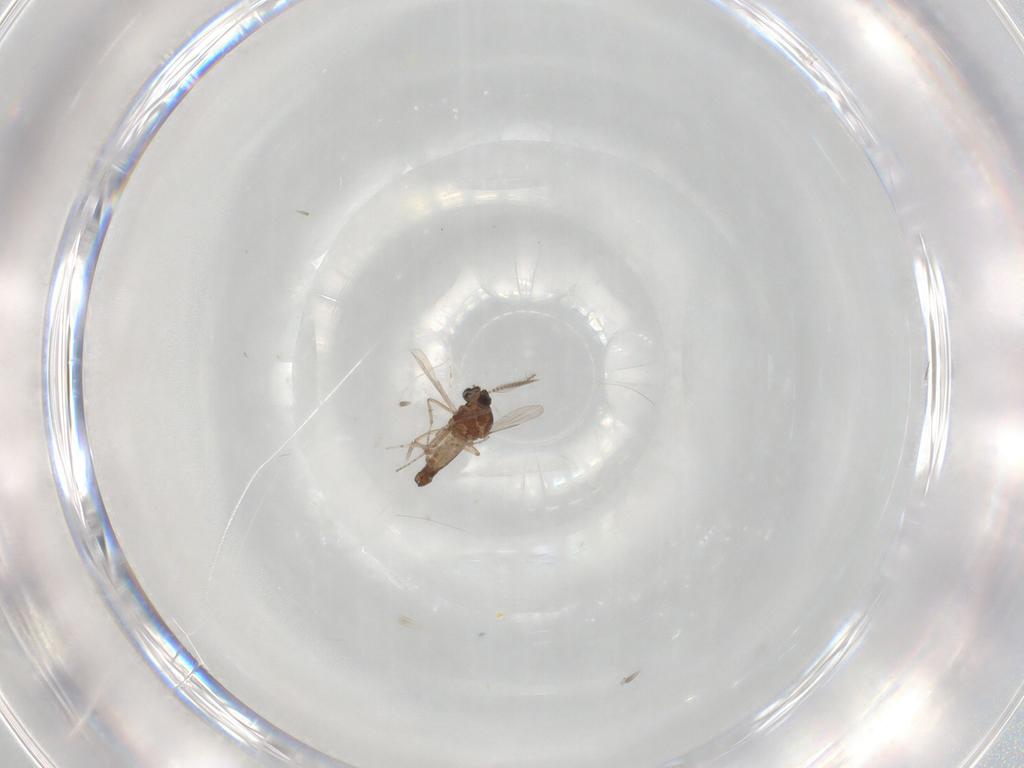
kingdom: Animalia
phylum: Arthropoda
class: Insecta
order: Diptera
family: Ceratopogonidae
